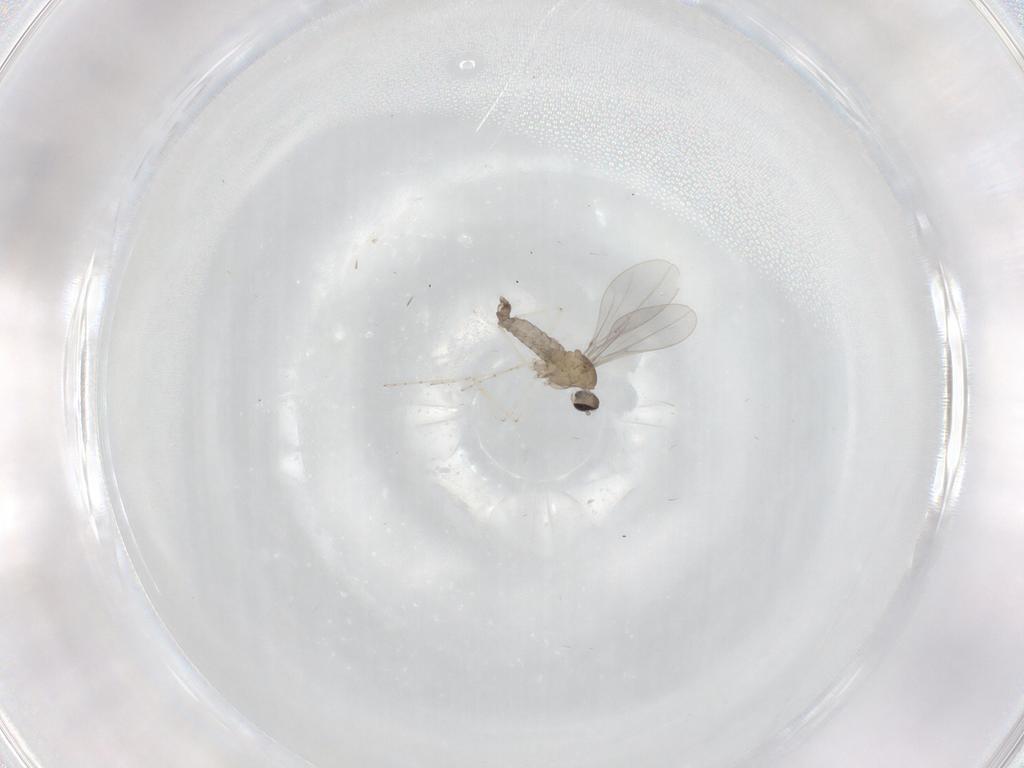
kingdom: Animalia
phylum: Arthropoda
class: Insecta
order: Diptera
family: Cecidomyiidae
